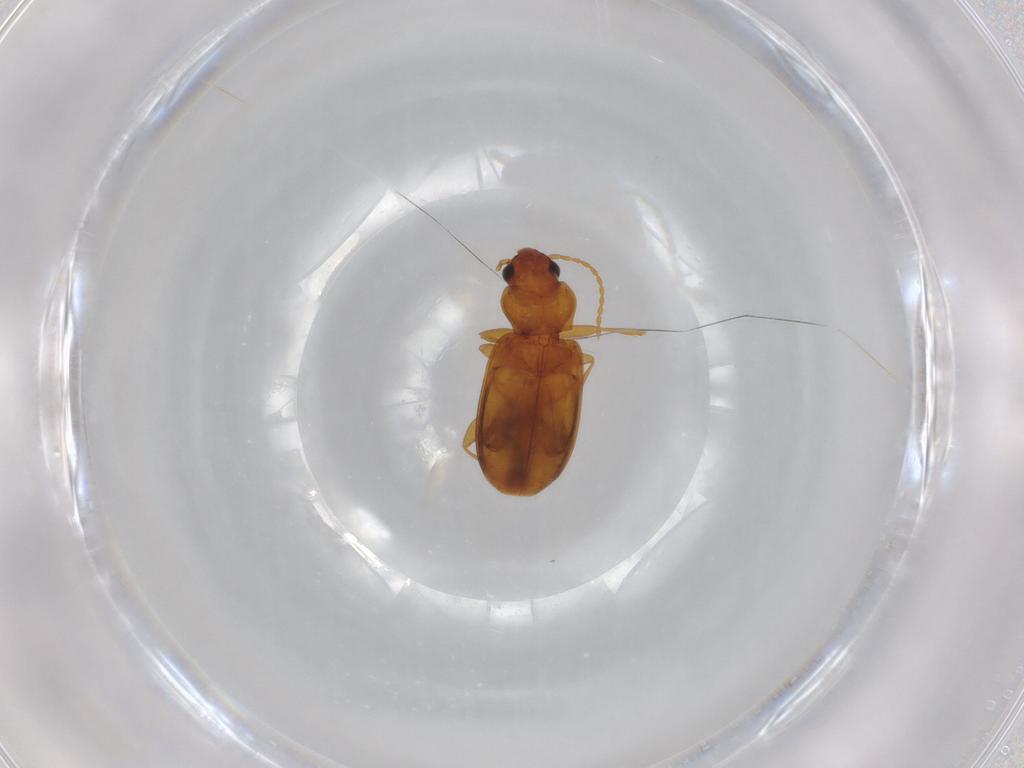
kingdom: Animalia
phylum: Arthropoda
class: Insecta
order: Coleoptera
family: Carabidae
